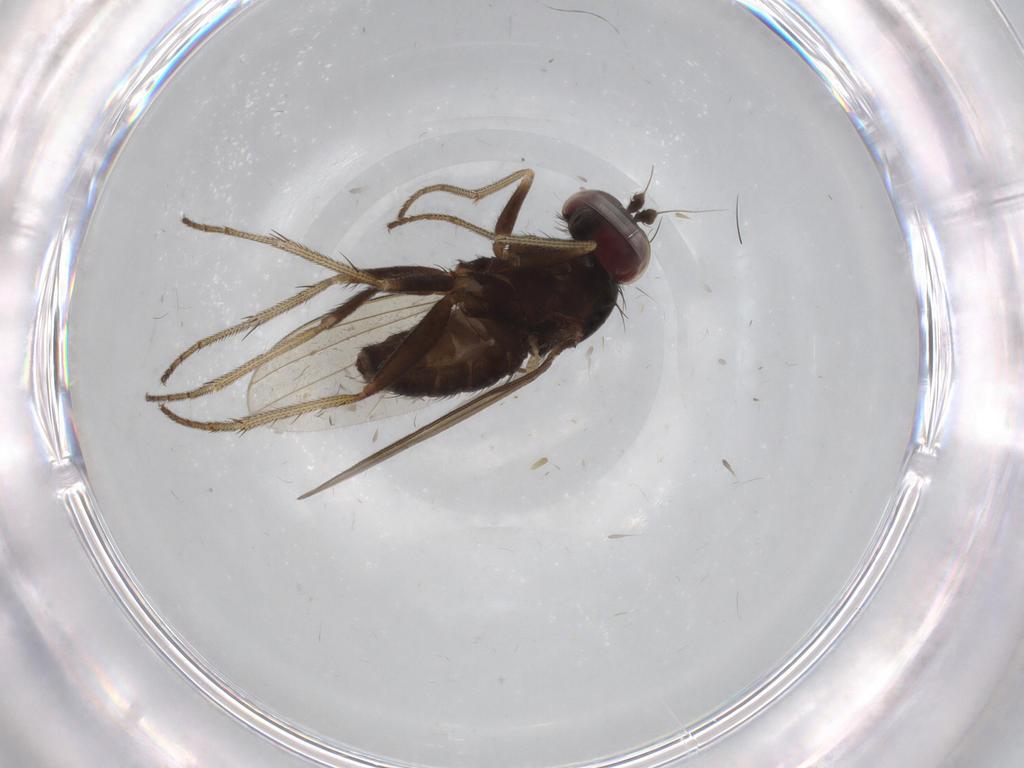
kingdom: Animalia
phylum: Arthropoda
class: Insecta
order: Diptera
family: Dolichopodidae
